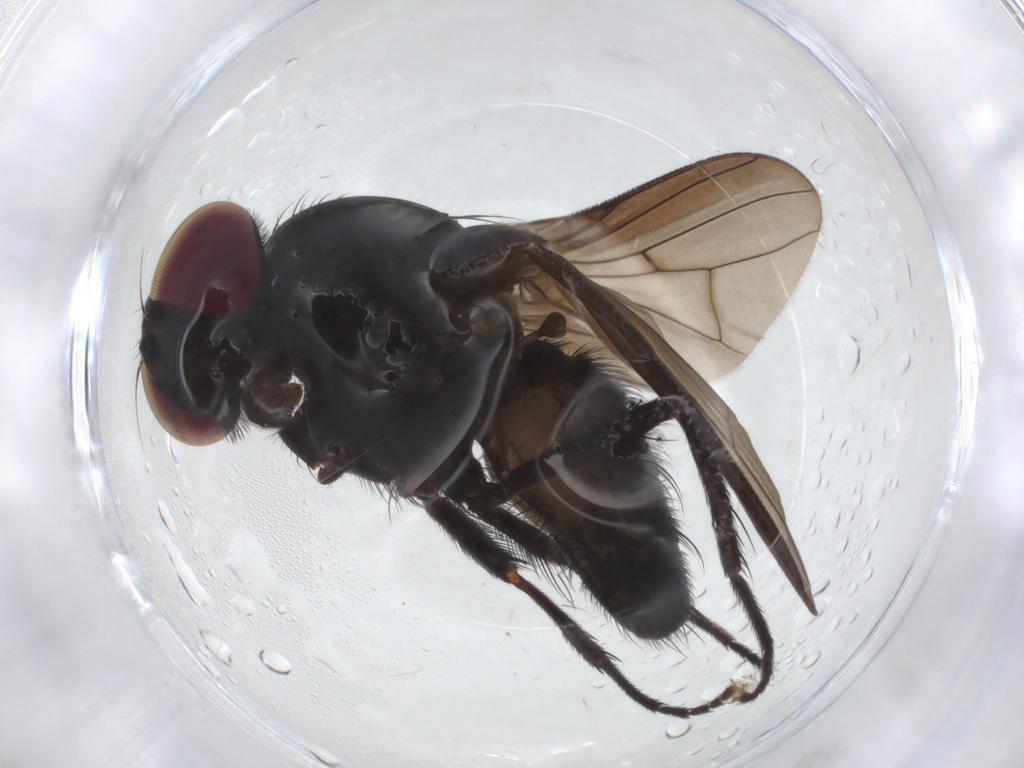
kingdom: Animalia
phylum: Arthropoda
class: Insecta
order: Diptera
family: Fannia
